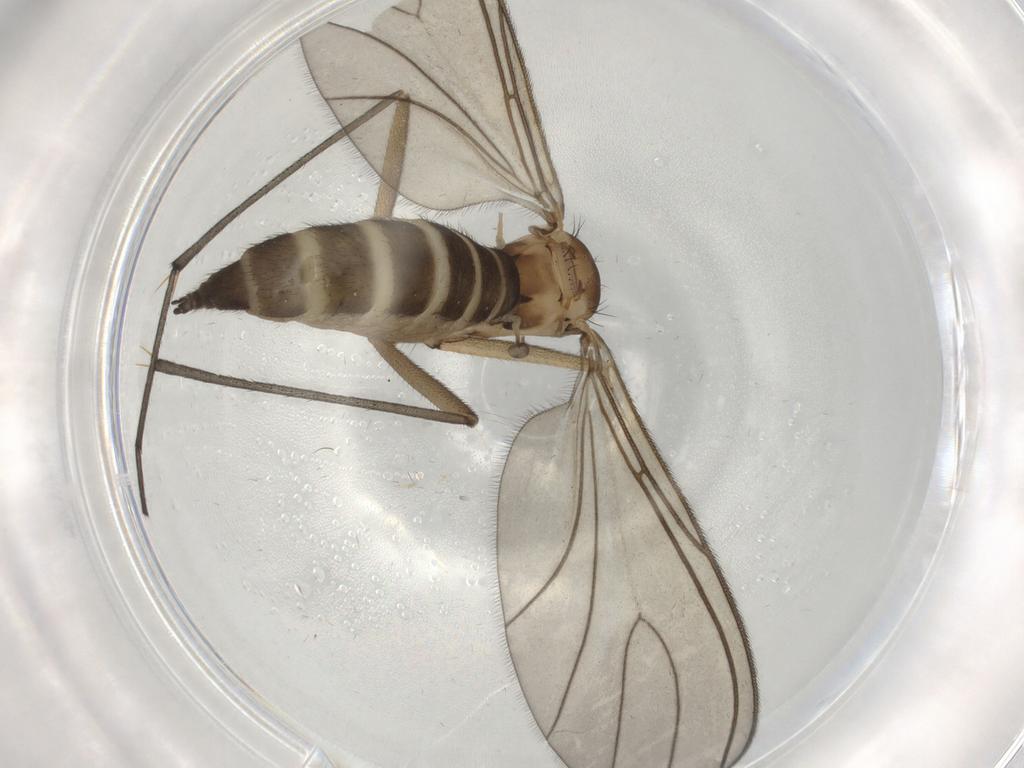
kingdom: Animalia
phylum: Arthropoda
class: Insecta
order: Diptera
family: Sciaridae
